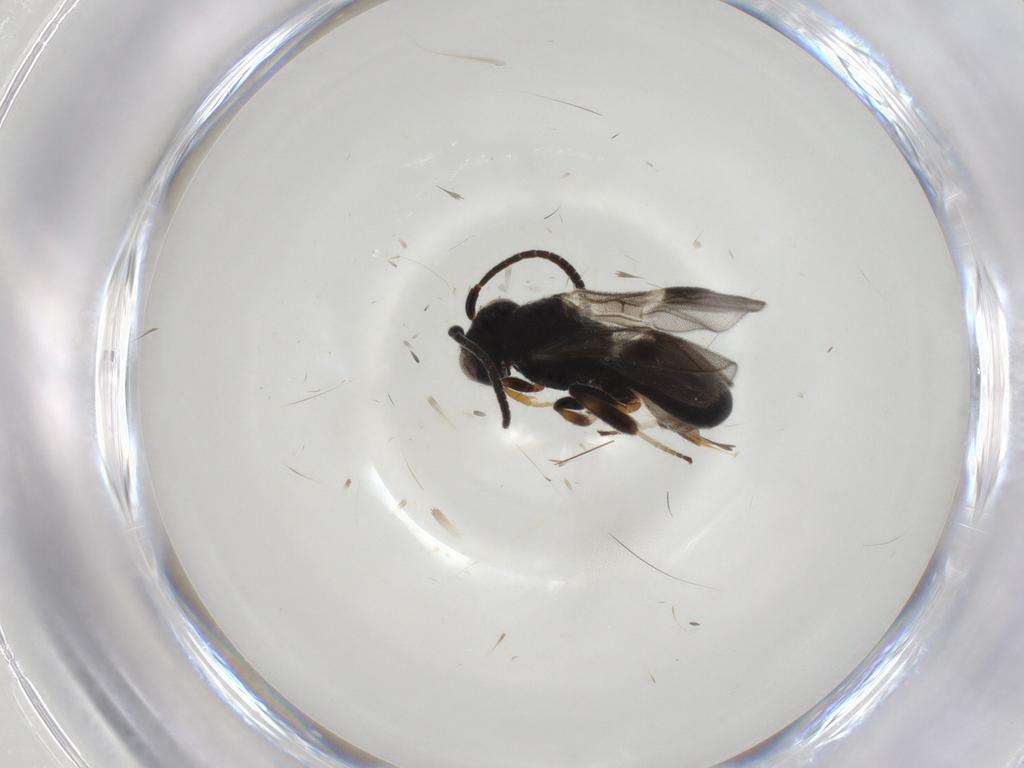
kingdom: Animalia
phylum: Arthropoda
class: Insecta
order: Hymenoptera
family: Braconidae
